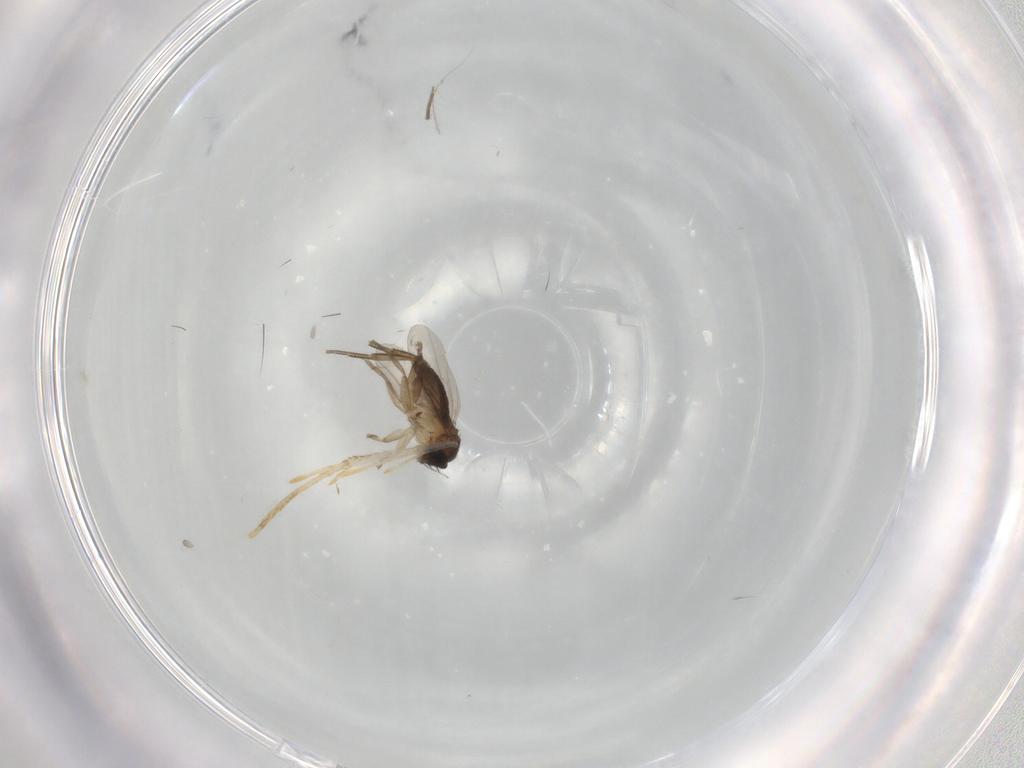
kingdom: Animalia
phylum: Arthropoda
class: Insecta
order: Diptera
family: Phoridae
